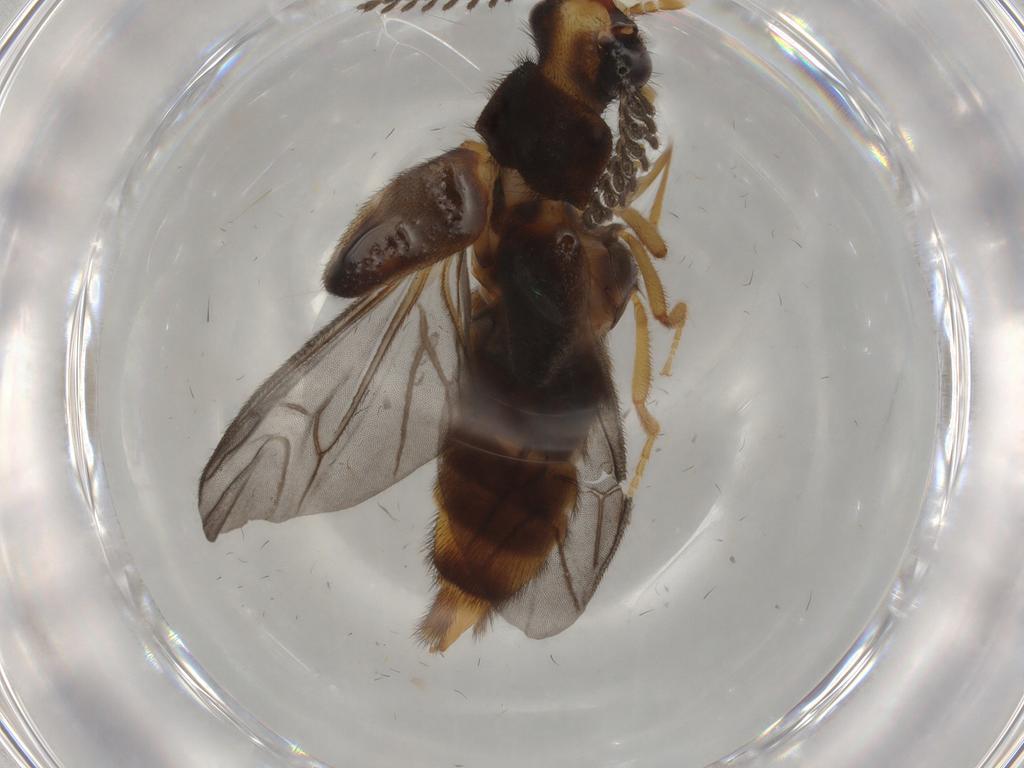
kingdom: Animalia
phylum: Arthropoda
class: Insecta
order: Coleoptera
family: Phengodidae
